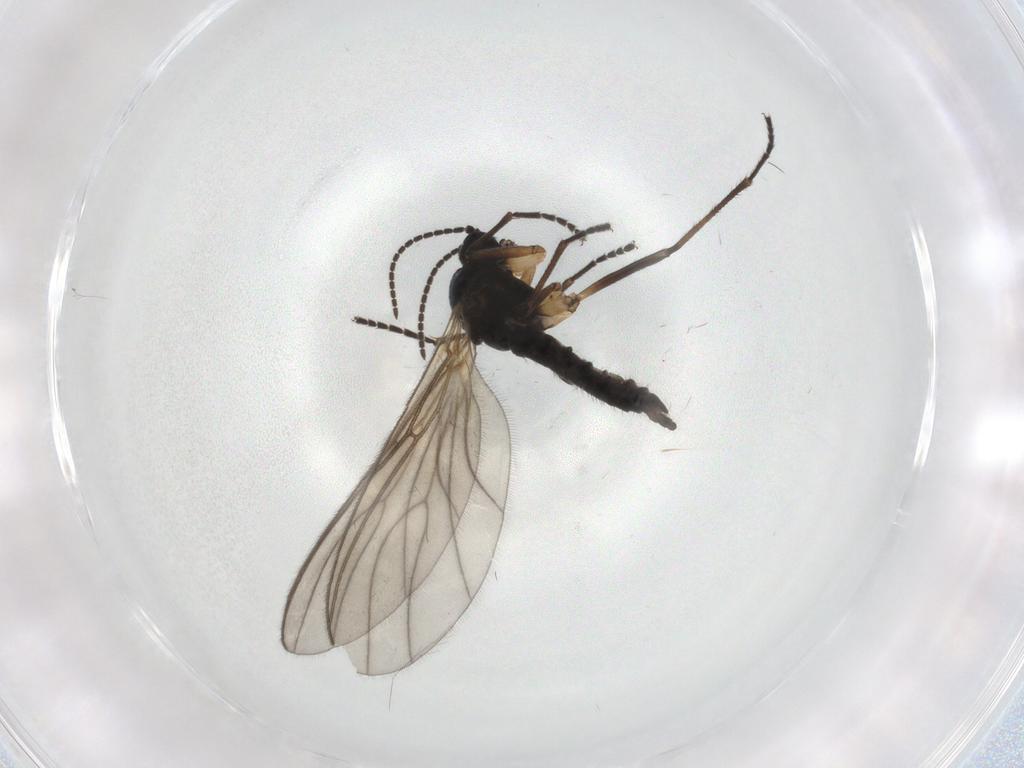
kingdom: Animalia
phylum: Arthropoda
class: Insecta
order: Diptera
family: Sciaridae
